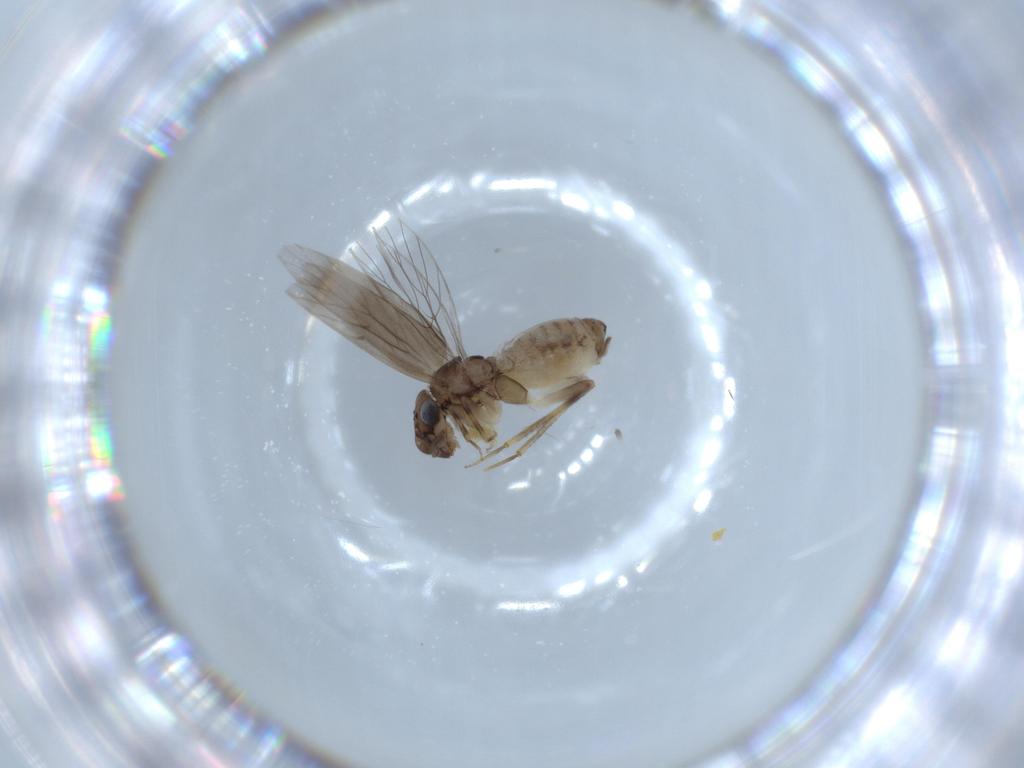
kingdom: Animalia
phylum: Arthropoda
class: Insecta
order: Psocodea
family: Lepidopsocidae
